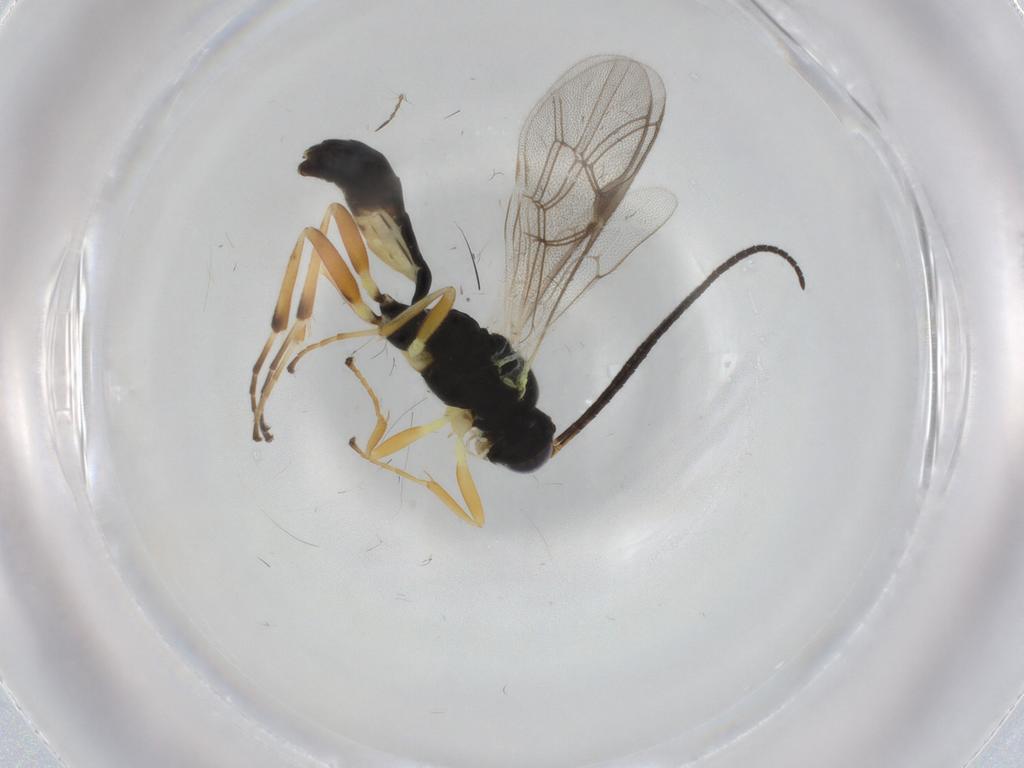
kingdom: Animalia
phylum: Arthropoda
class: Insecta
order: Hymenoptera
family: Ichneumonidae
